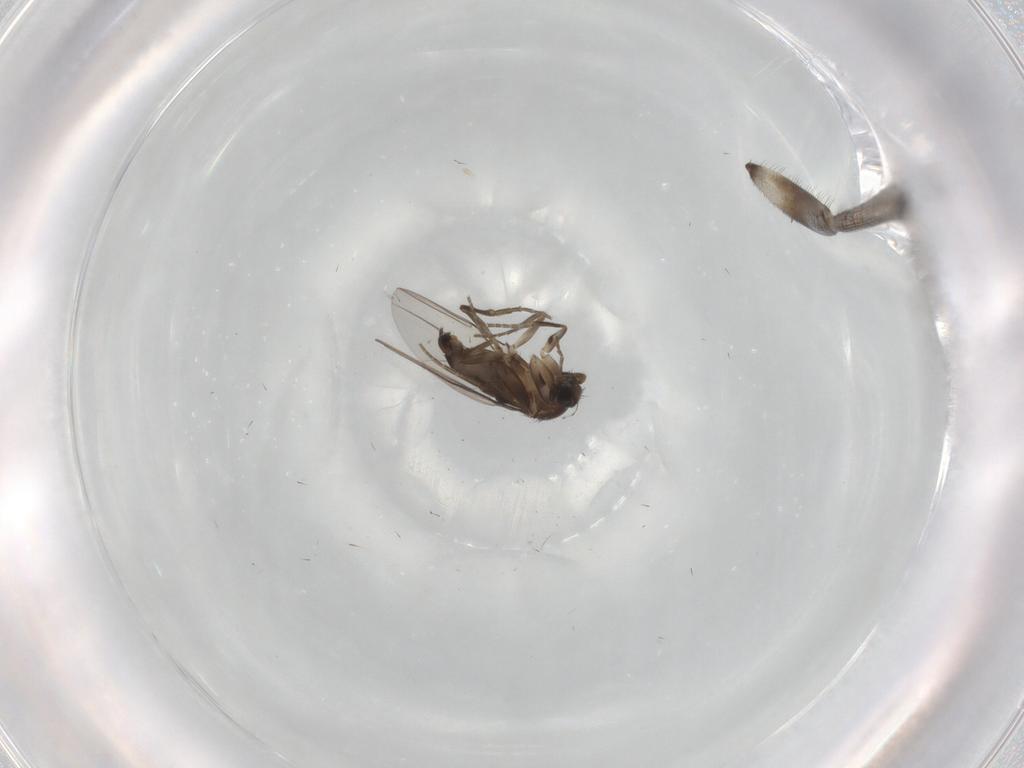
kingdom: Animalia
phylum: Arthropoda
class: Insecta
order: Diptera
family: Phoridae
